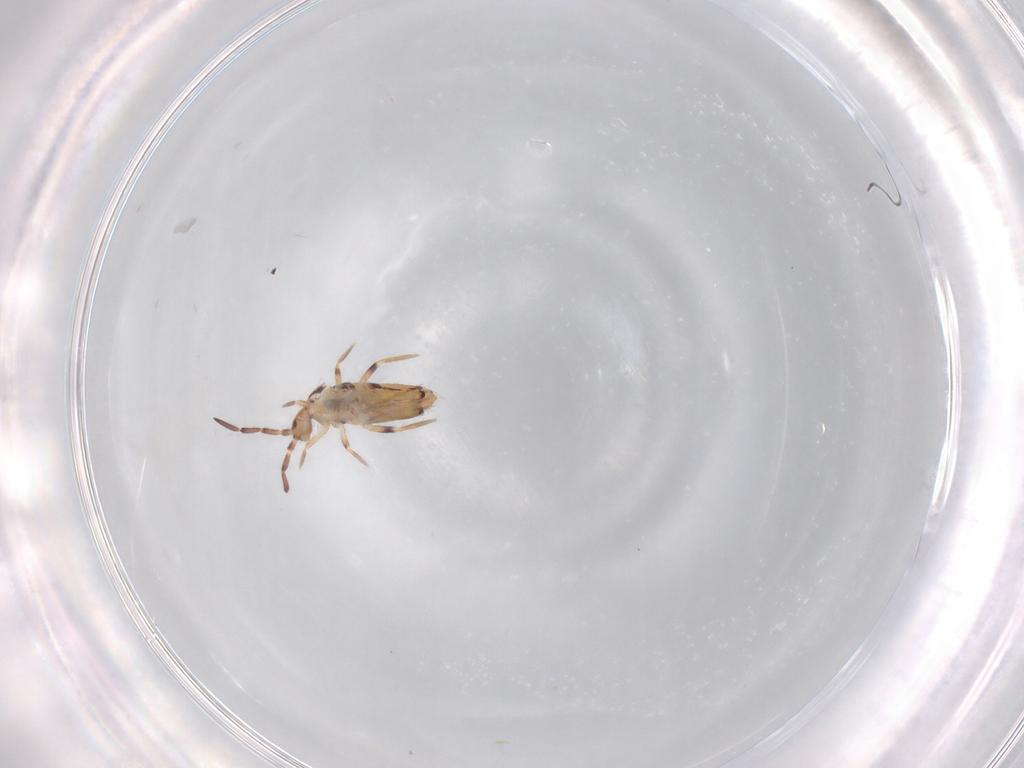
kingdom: Animalia
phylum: Arthropoda
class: Collembola
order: Entomobryomorpha
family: Entomobryidae
